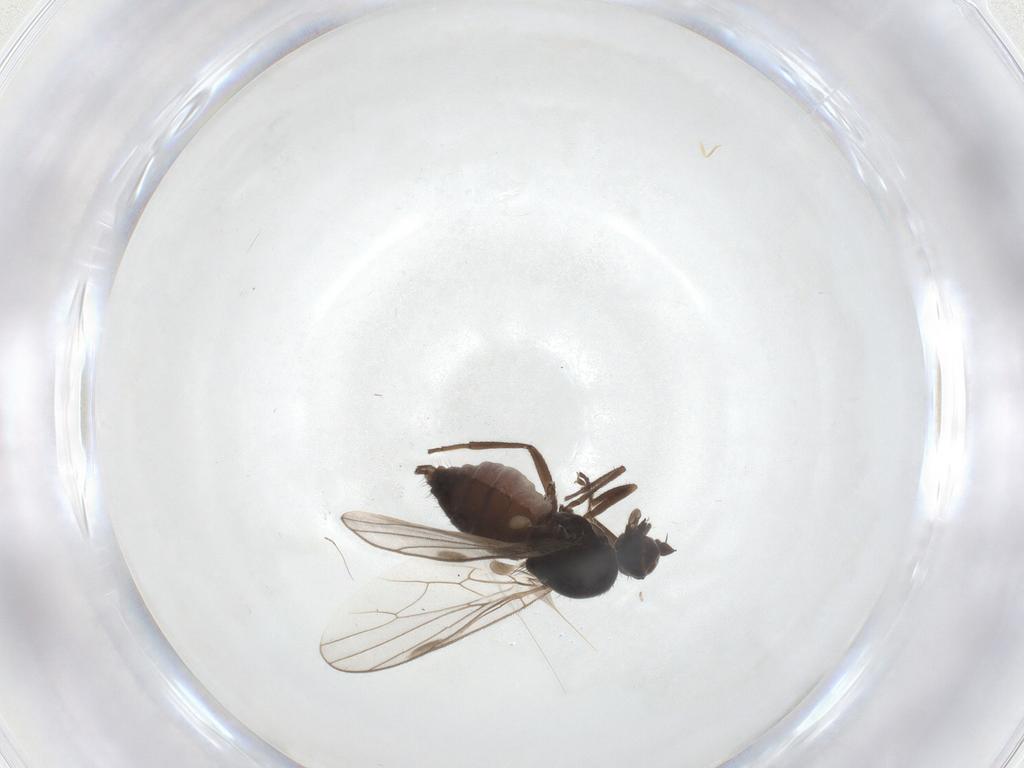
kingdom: Animalia
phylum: Arthropoda
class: Insecta
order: Diptera
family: Hybotidae
